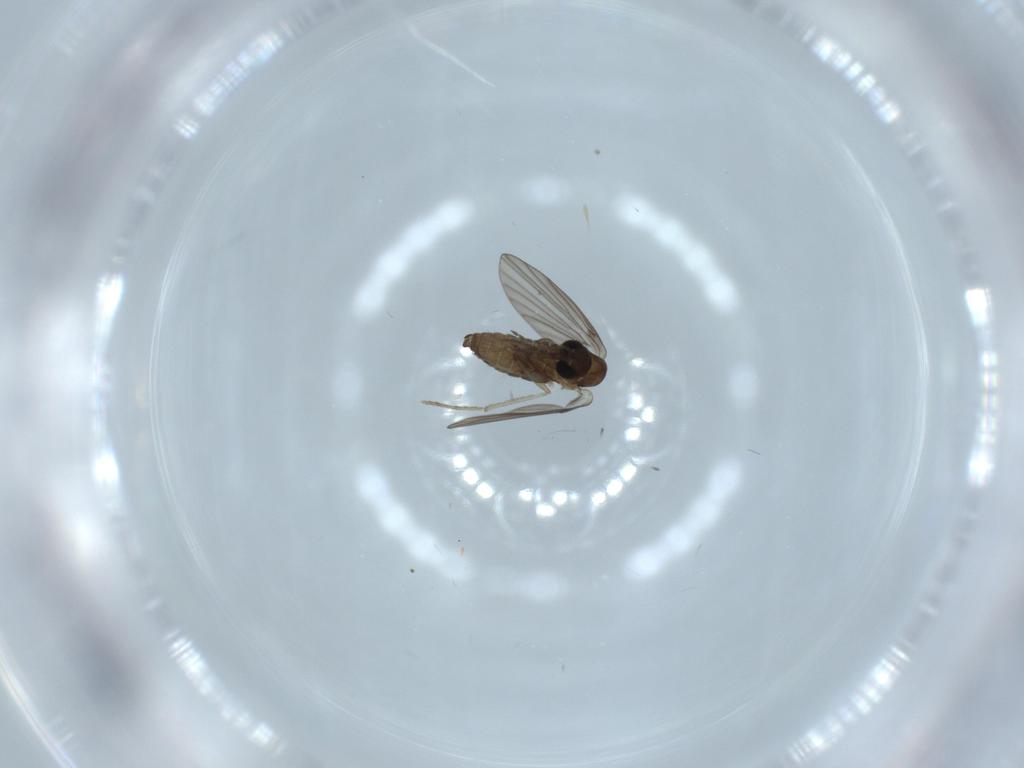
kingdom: Animalia
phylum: Arthropoda
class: Insecta
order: Diptera
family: Psychodidae
